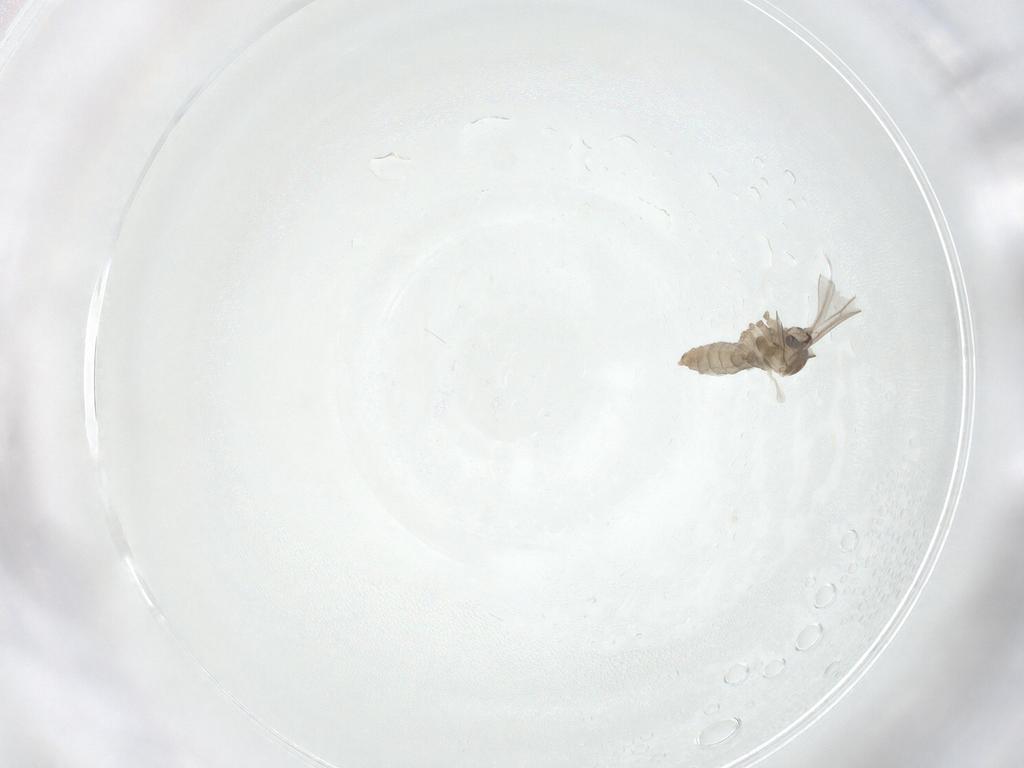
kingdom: Animalia
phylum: Arthropoda
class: Insecta
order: Diptera
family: Cecidomyiidae
